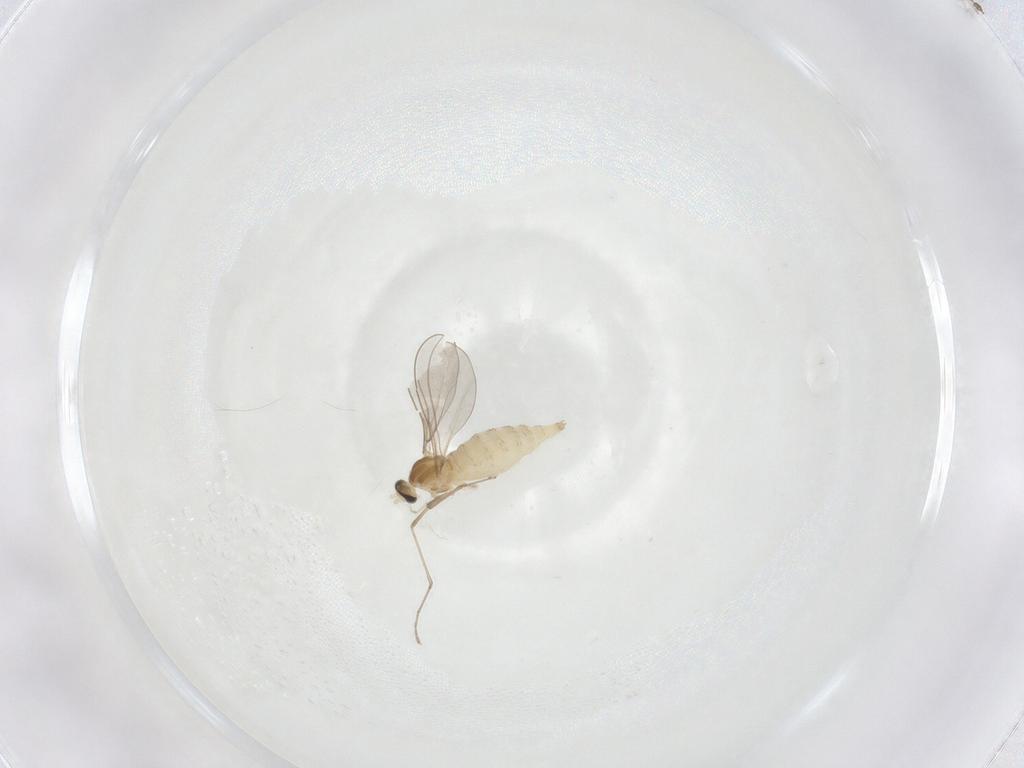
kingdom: Animalia
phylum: Arthropoda
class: Insecta
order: Diptera
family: Cecidomyiidae
